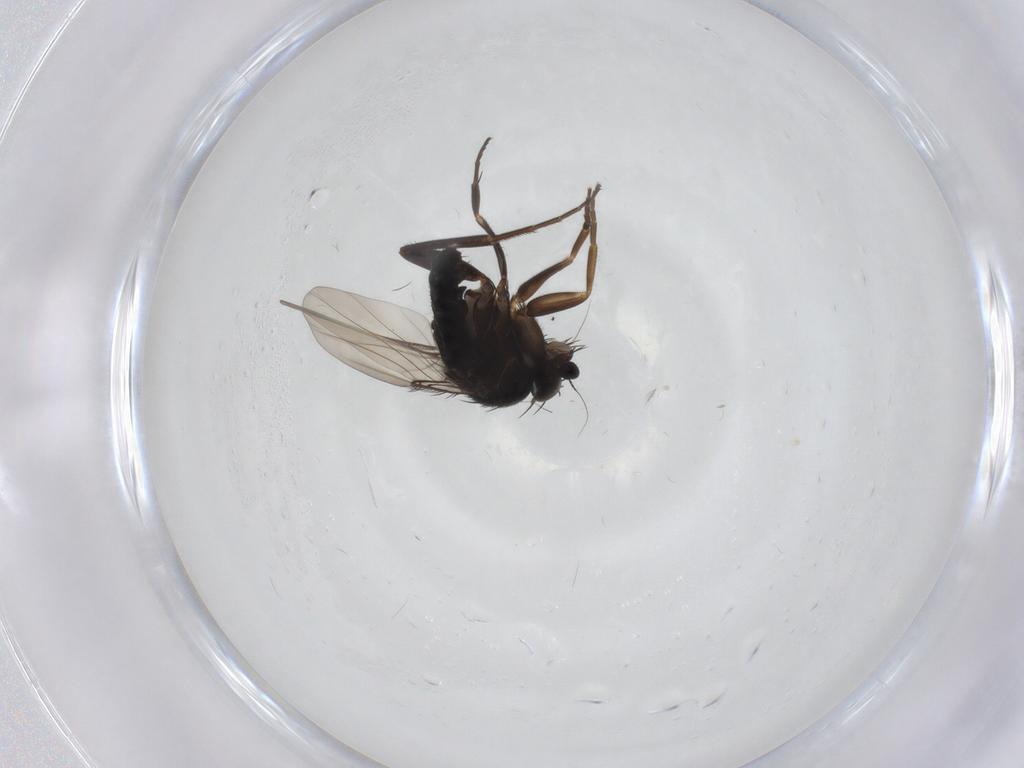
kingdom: Animalia
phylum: Arthropoda
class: Insecta
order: Diptera
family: Phoridae
